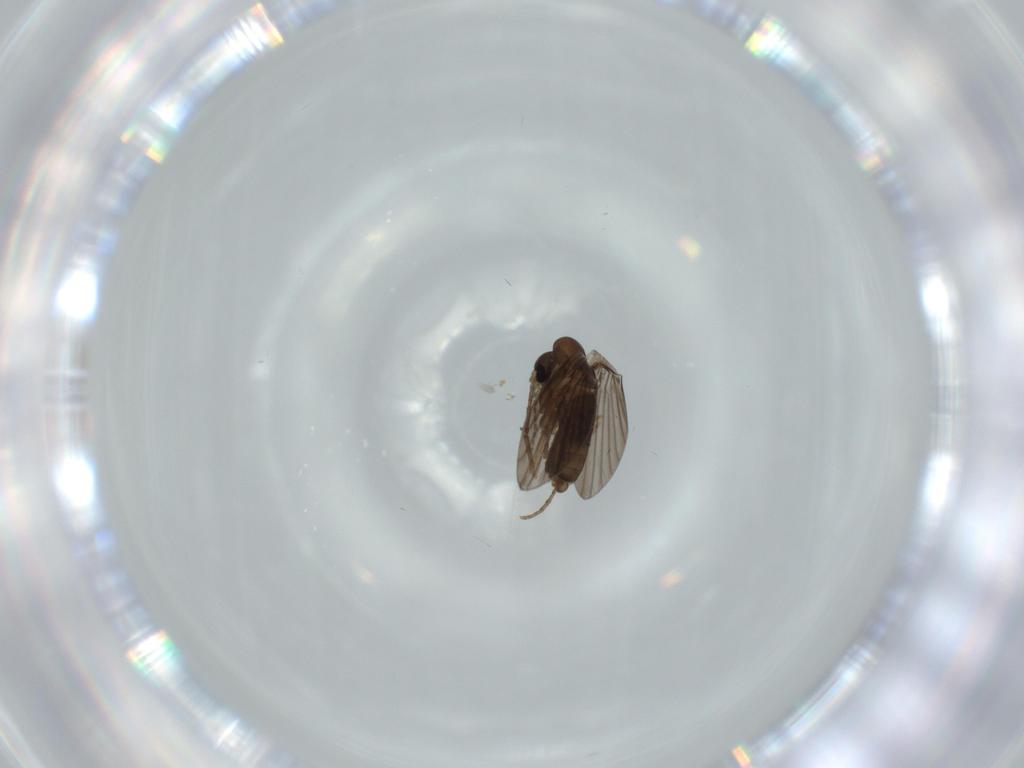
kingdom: Animalia
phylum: Arthropoda
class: Insecta
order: Diptera
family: Psychodidae
